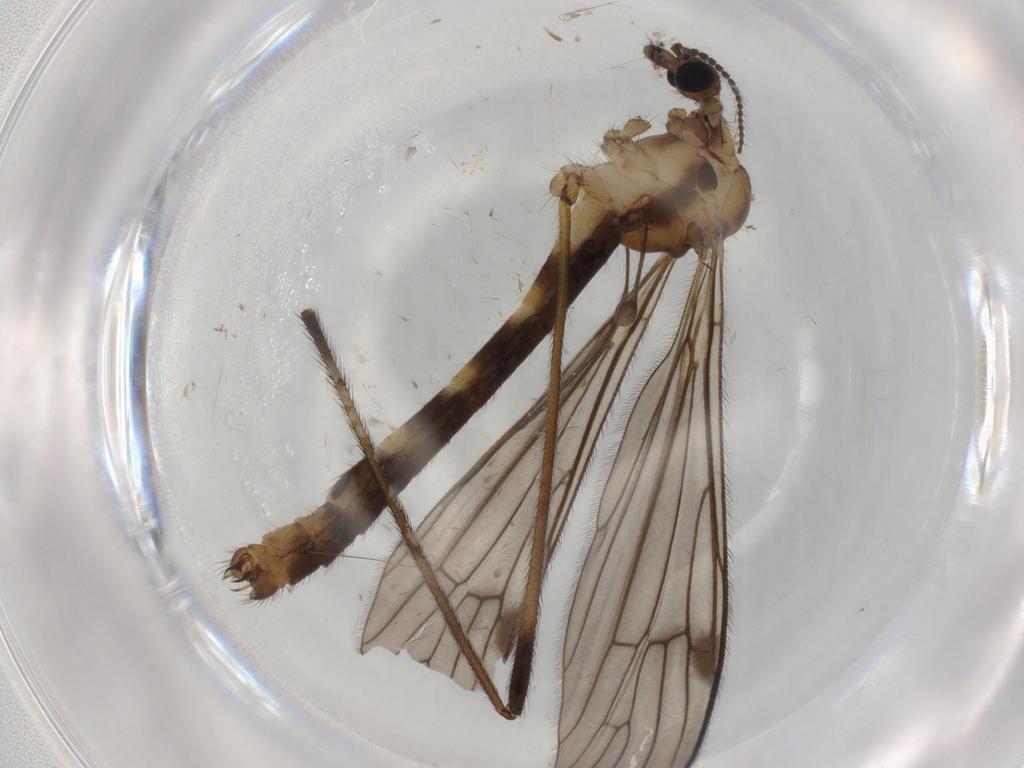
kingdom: Animalia
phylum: Arthropoda
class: Insecta
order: Diptera
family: Limoniidae
